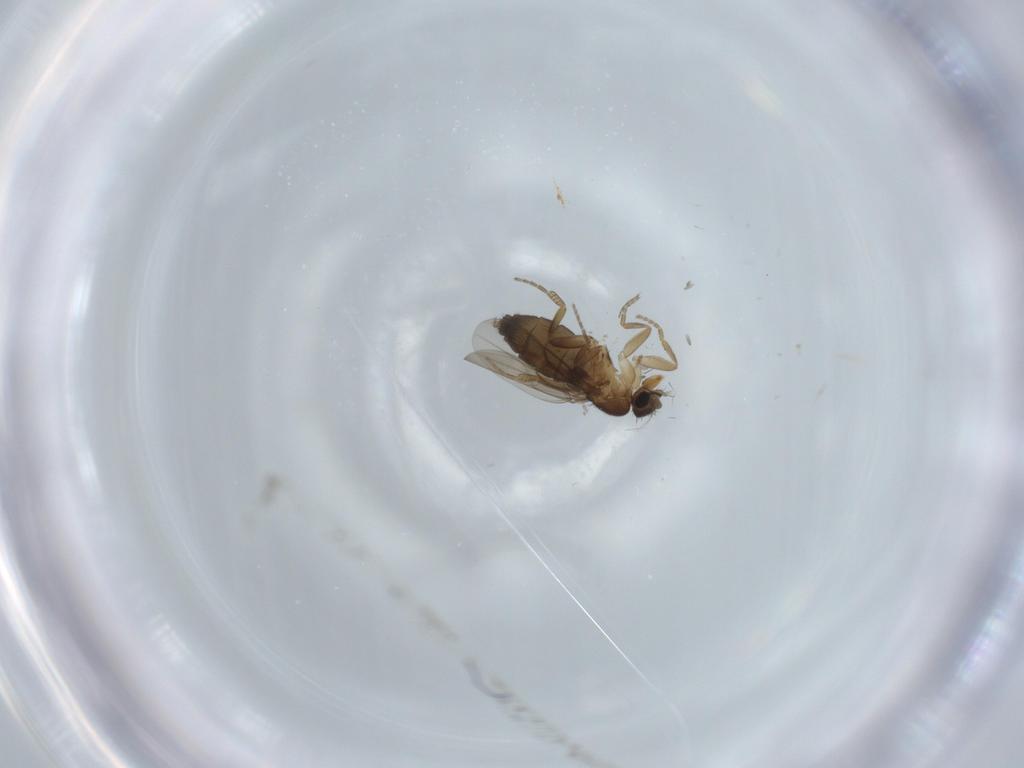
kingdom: Animalia
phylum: Arthropoda
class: Insecta
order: Diptera
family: Phoridae
